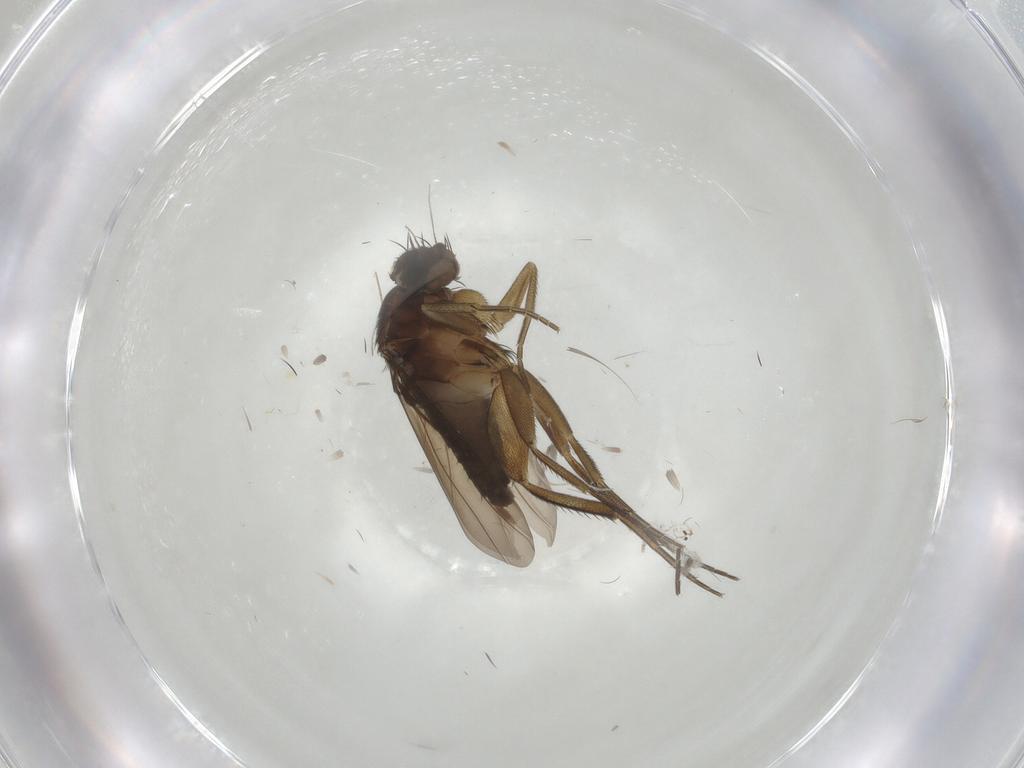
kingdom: Animalia
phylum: Arthropoda
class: Insecta
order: Diptera
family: Phoridae
